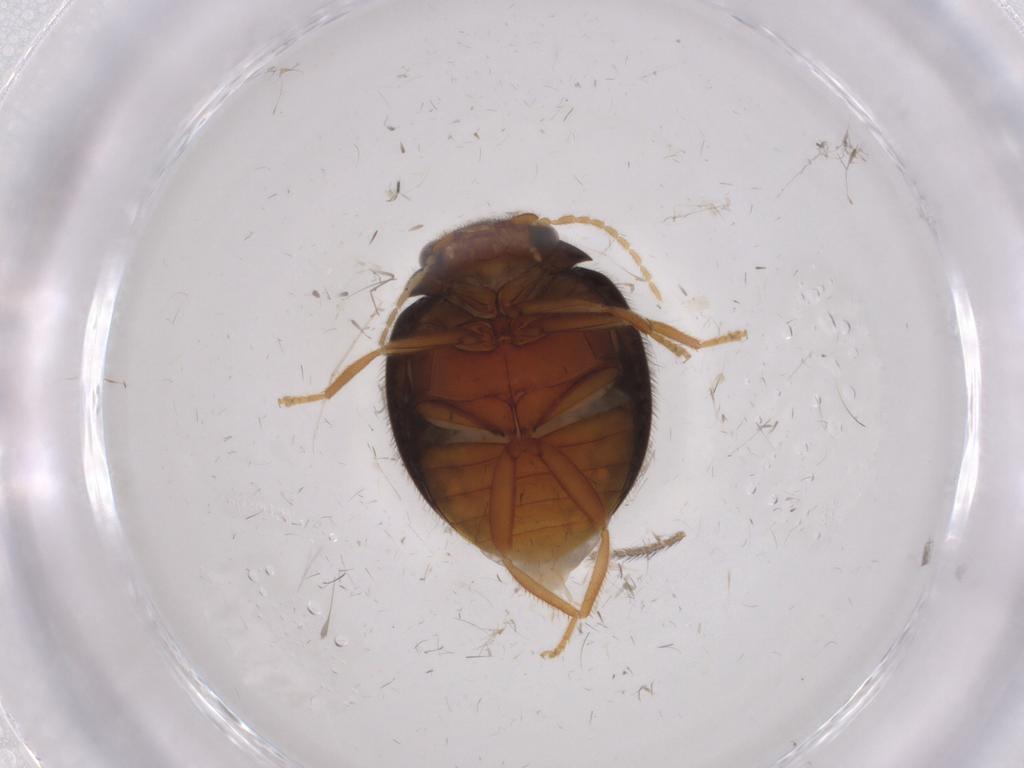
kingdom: Animalia
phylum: Arthropoda
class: Insecta
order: Coleoptera
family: Scirtidae
